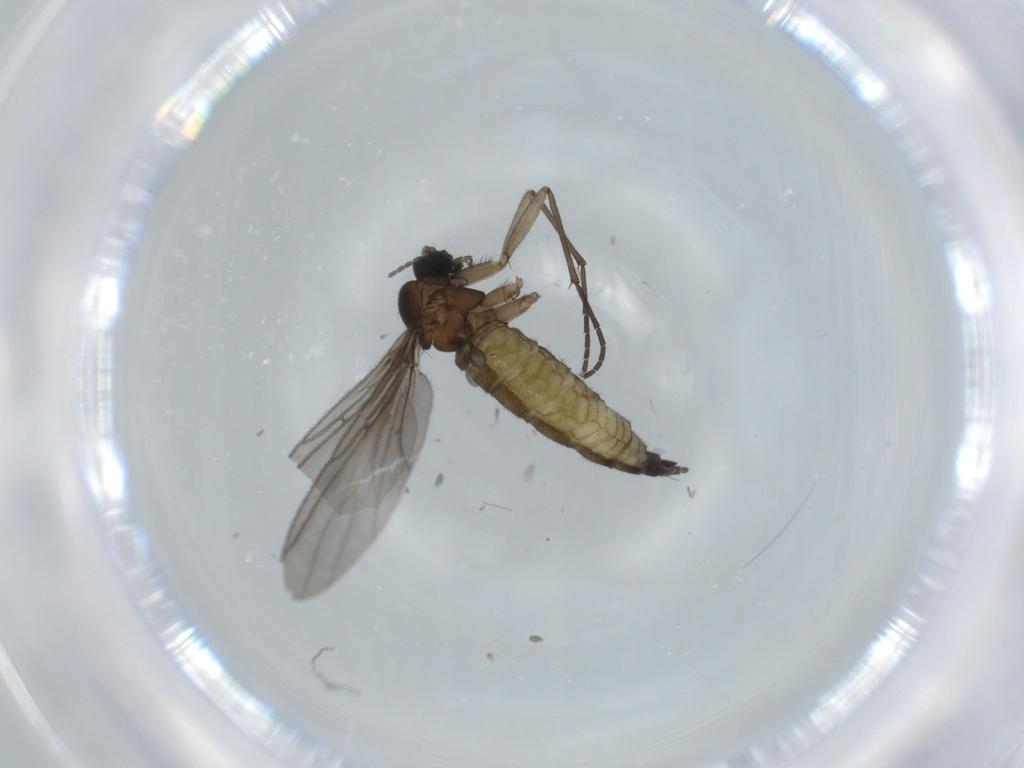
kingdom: Animalia
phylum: Arthropoda
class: Insecta
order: Diptera
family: Sciaridae
